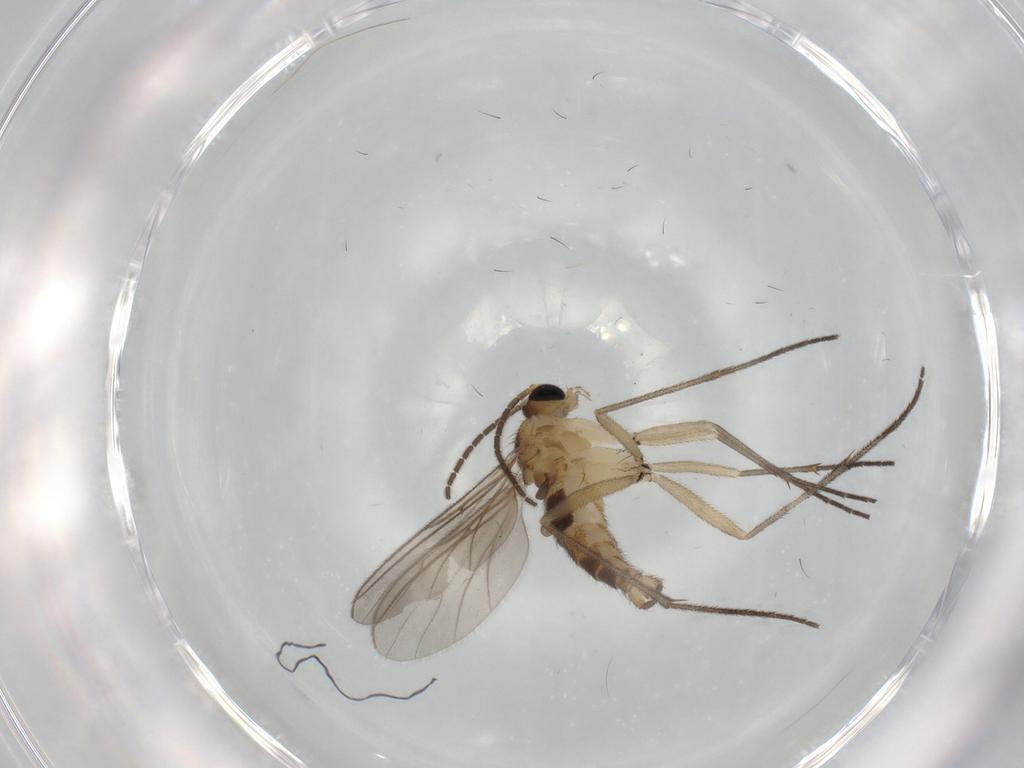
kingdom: Animalia
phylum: Arthropoda
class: Insecta
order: Diptera
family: Sciaridae
